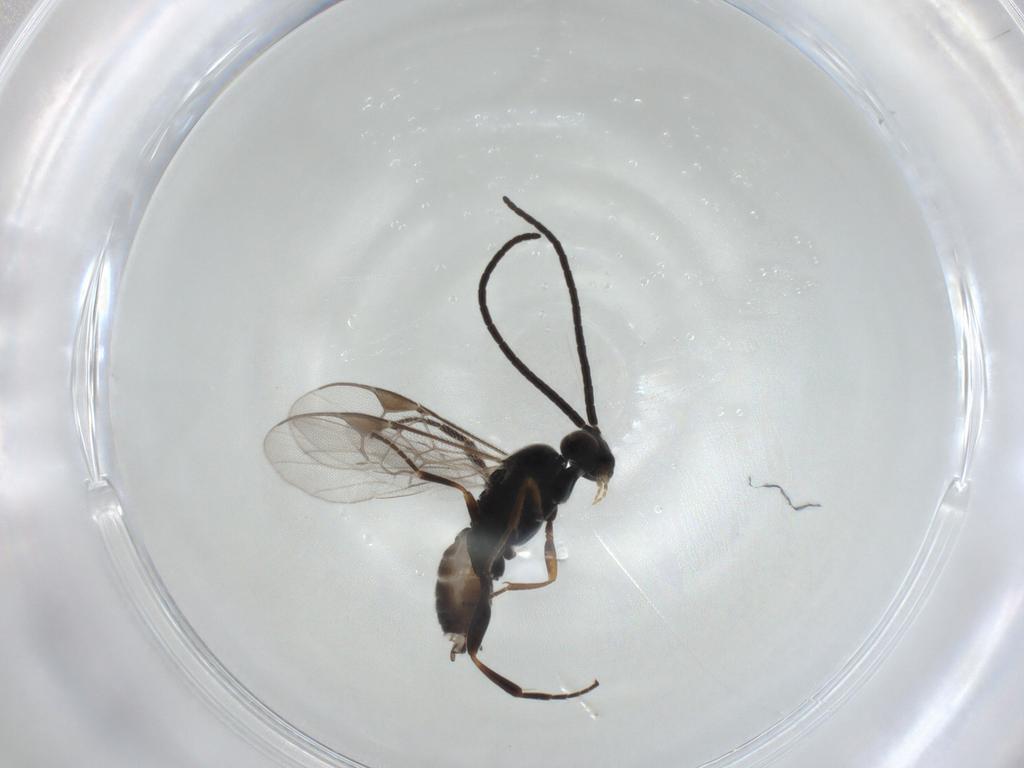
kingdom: Animalia
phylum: Arthropoda
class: Insecta
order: Hymenoptera
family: Braconidae
